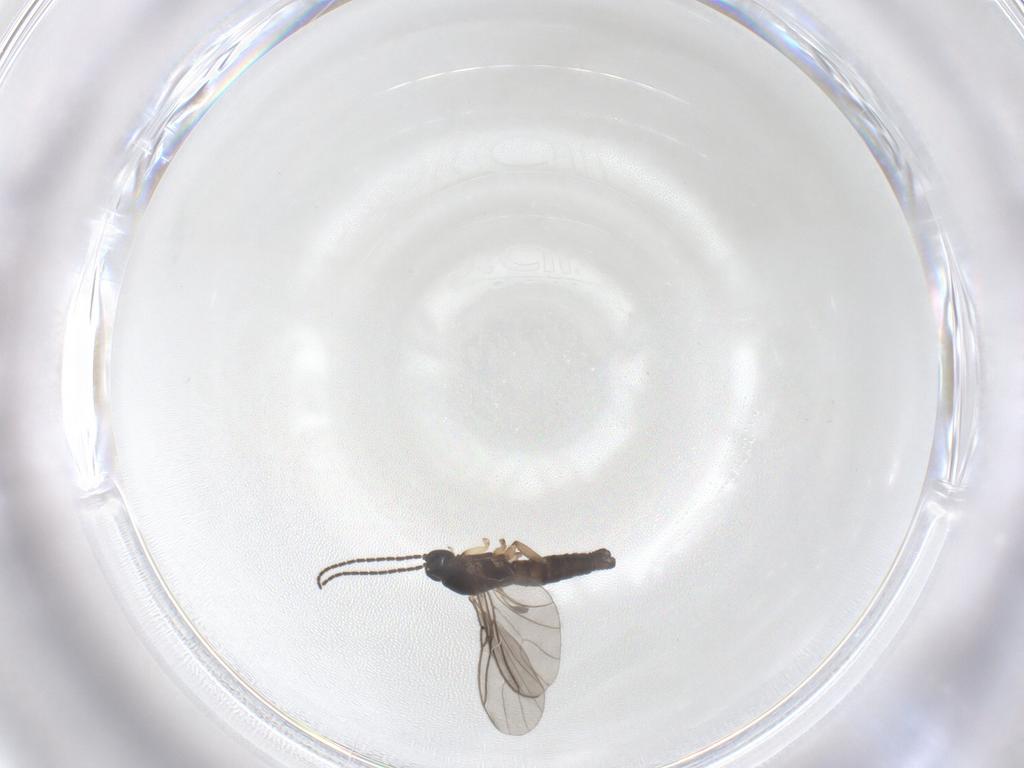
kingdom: Animalia
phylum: Arthropoda
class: Insecta
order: Diptera
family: Sciaridae
